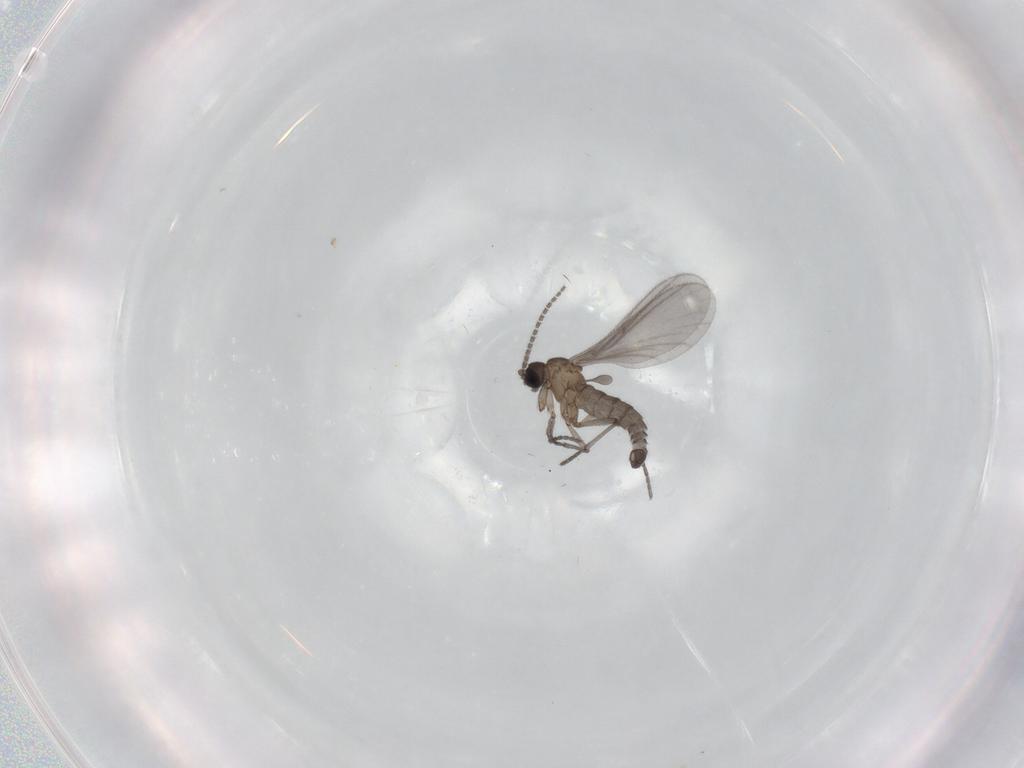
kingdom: Animalia
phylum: Arthropoda
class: Insecta
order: Diptera
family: Sciaridae
